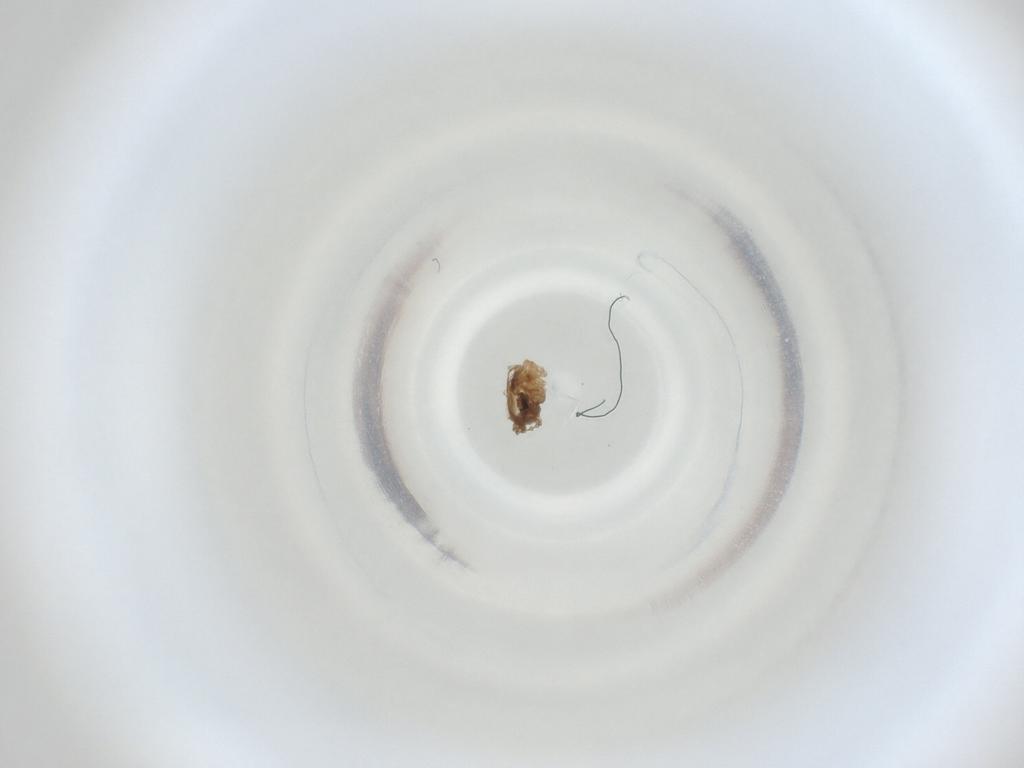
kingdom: Animalia
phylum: Arthropoda
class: Insecta
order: Diptera
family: Cecidomyiidae
